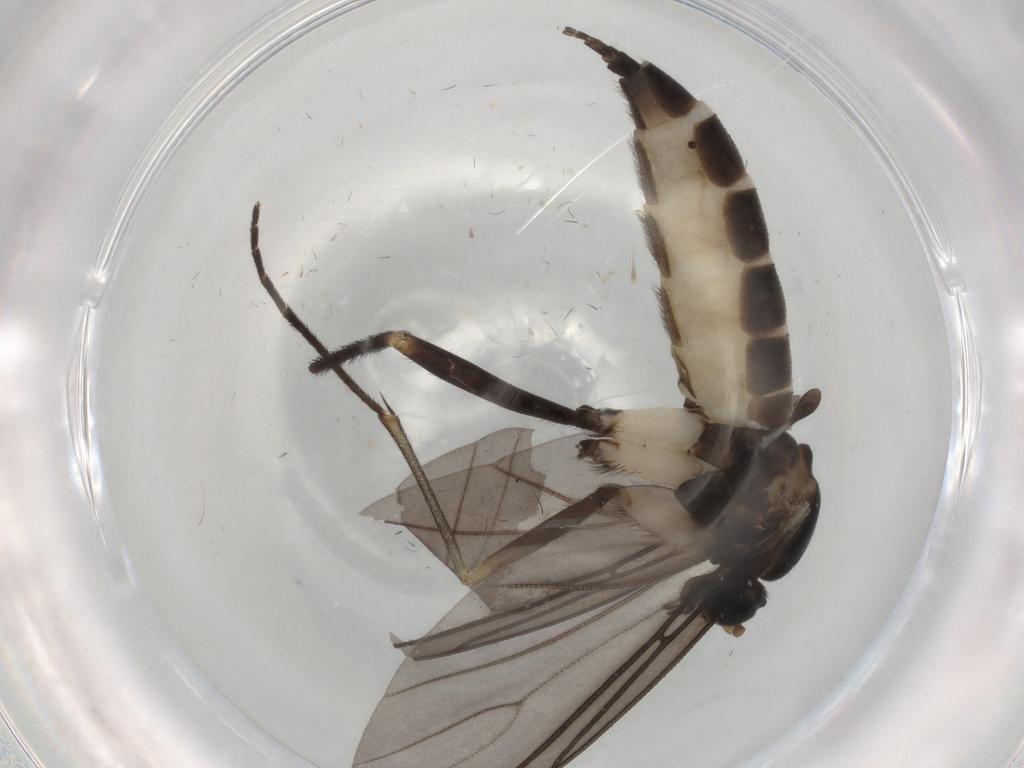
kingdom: Animalia
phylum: Arthropoda
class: Insecta
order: Diptera
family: Sciaridae
